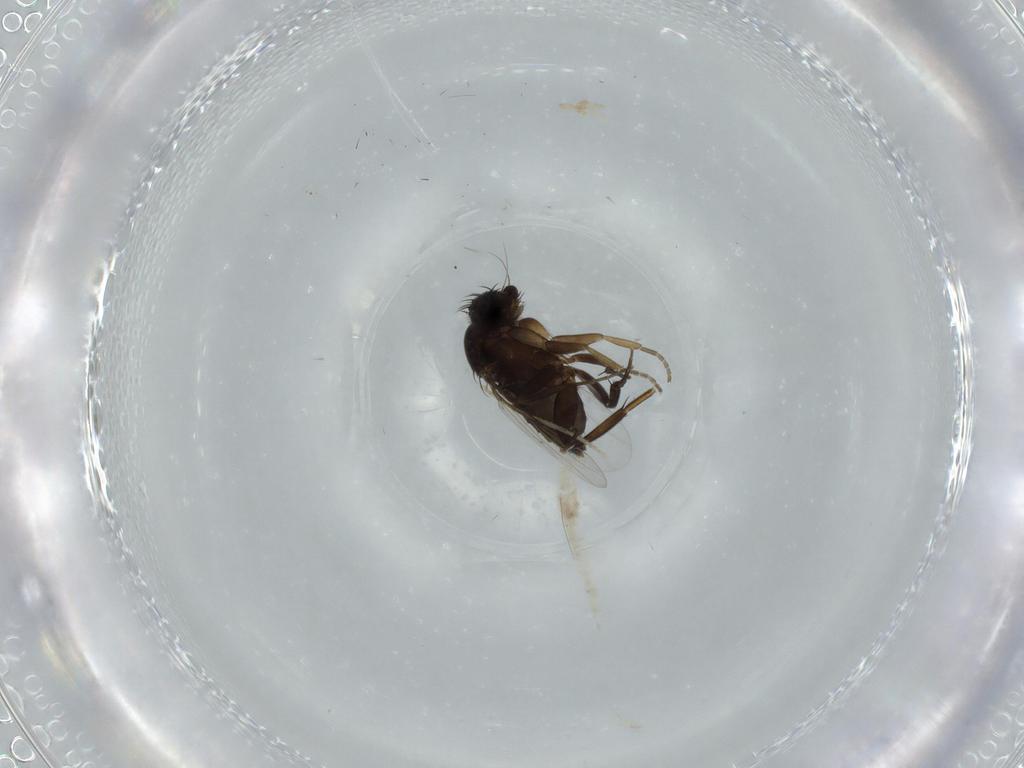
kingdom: Animalia
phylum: Arthropoda
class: Insecta
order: Diptera
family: Phoridae
